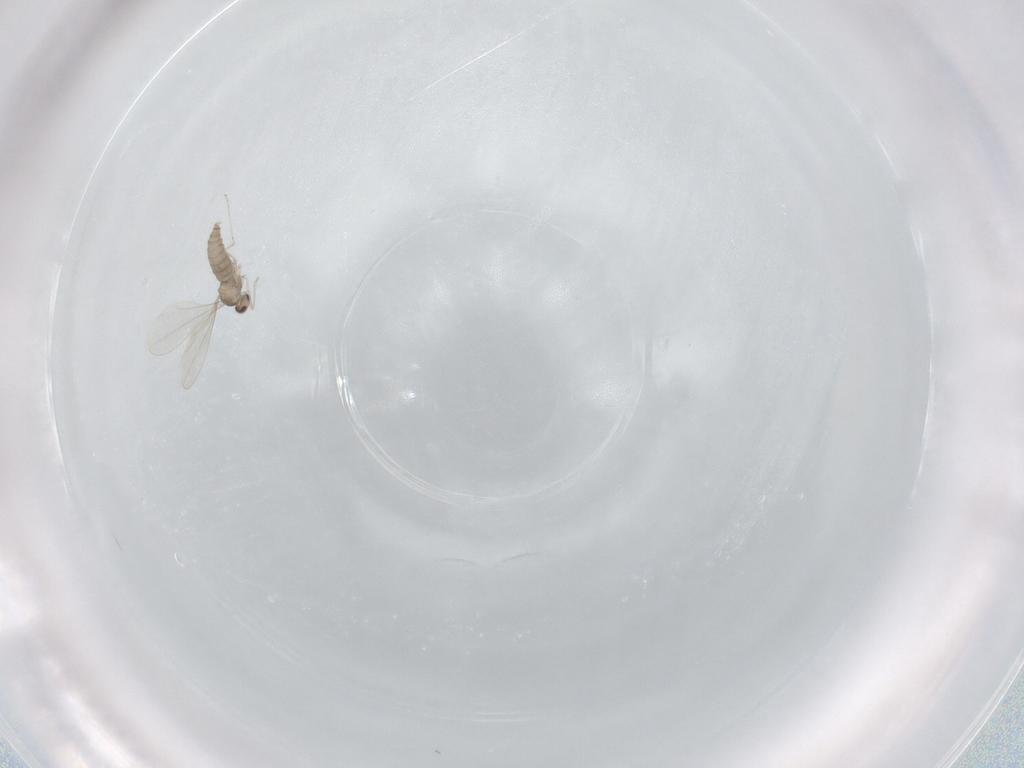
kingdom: Animalia
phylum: Arthropoda
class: Insecta
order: Diptera
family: Cecidomyiidae
